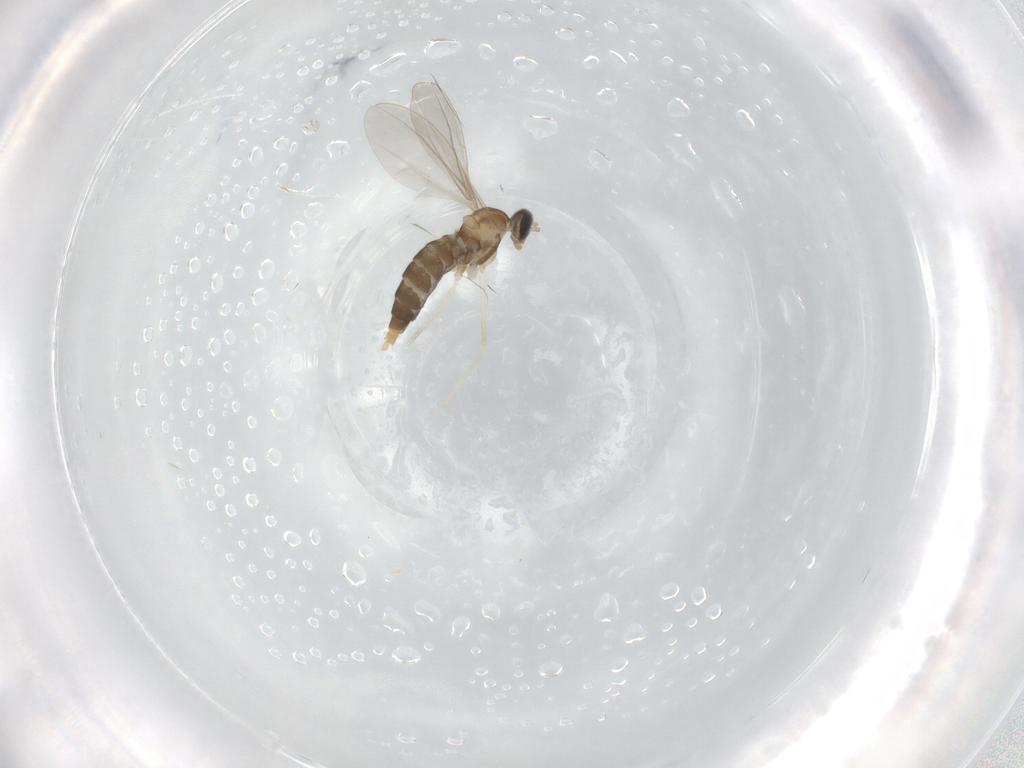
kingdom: Animalia
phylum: Arthropoda
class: Insecta
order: Diptera
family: Cecidomyiidae
